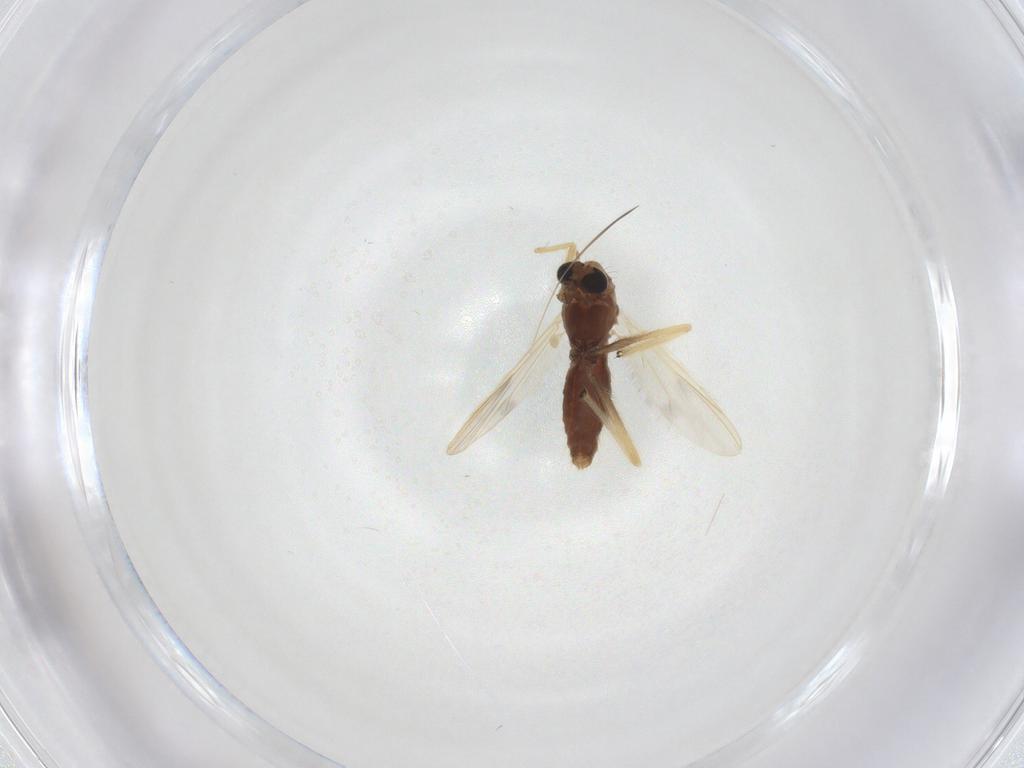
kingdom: Animalia
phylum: Arthropoda
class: Insecta
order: Diptera
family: Chironomidae
